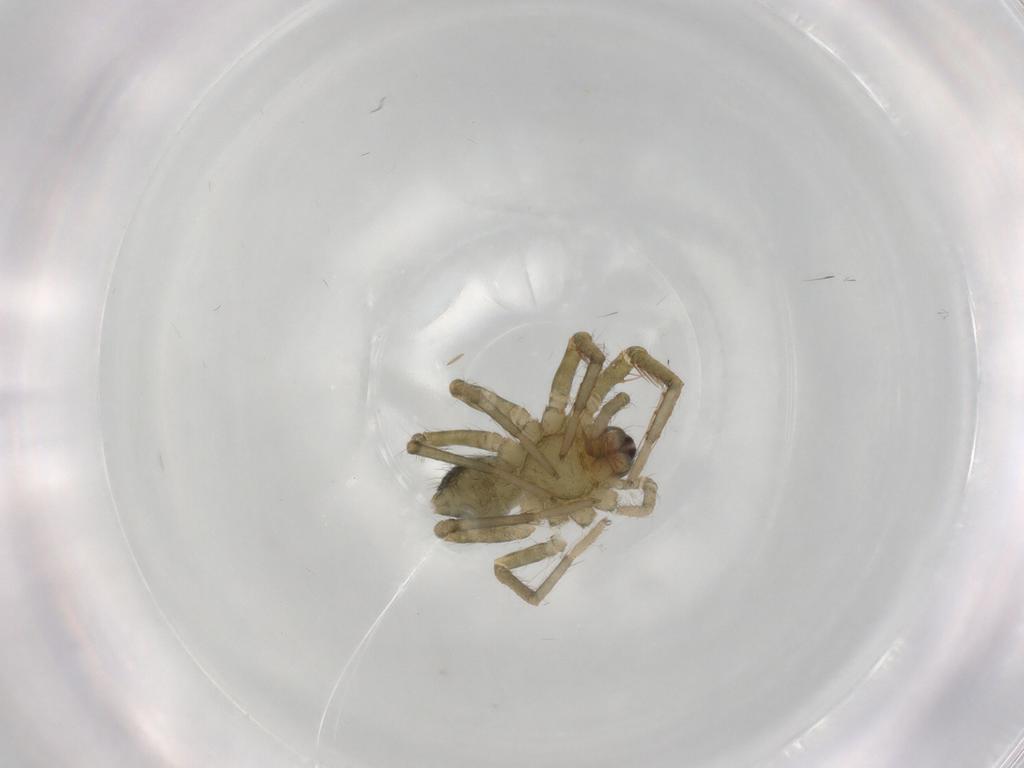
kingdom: Animalia
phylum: Arthropoda
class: Arachnida
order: Araneae
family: Ctenidae
